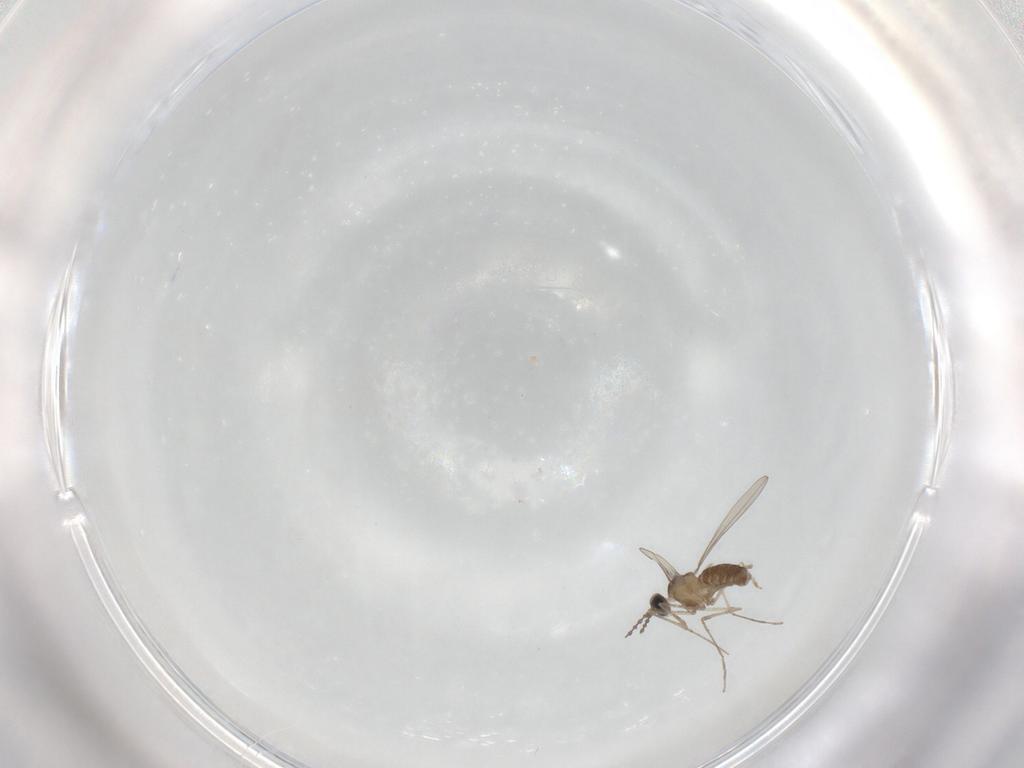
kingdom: Animalia
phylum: Arthropoda
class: Insecta
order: Diptera
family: Cecidomyiidae
